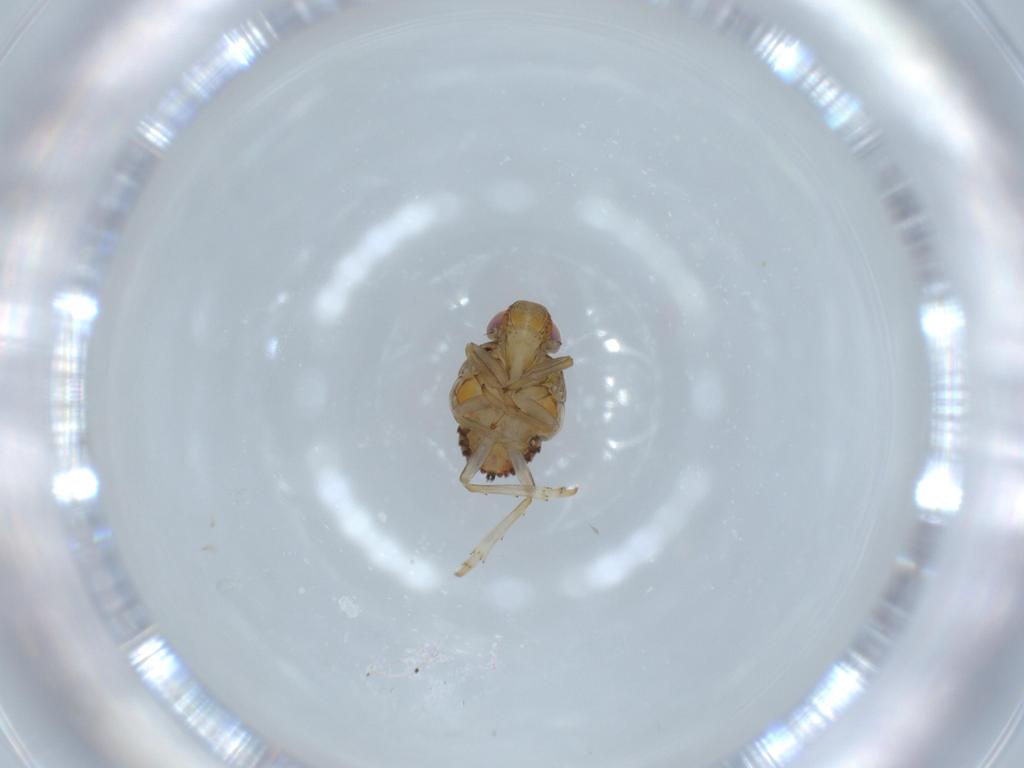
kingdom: Animalia
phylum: Arthropoda
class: Insecta
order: Hemiptera
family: Issidae
